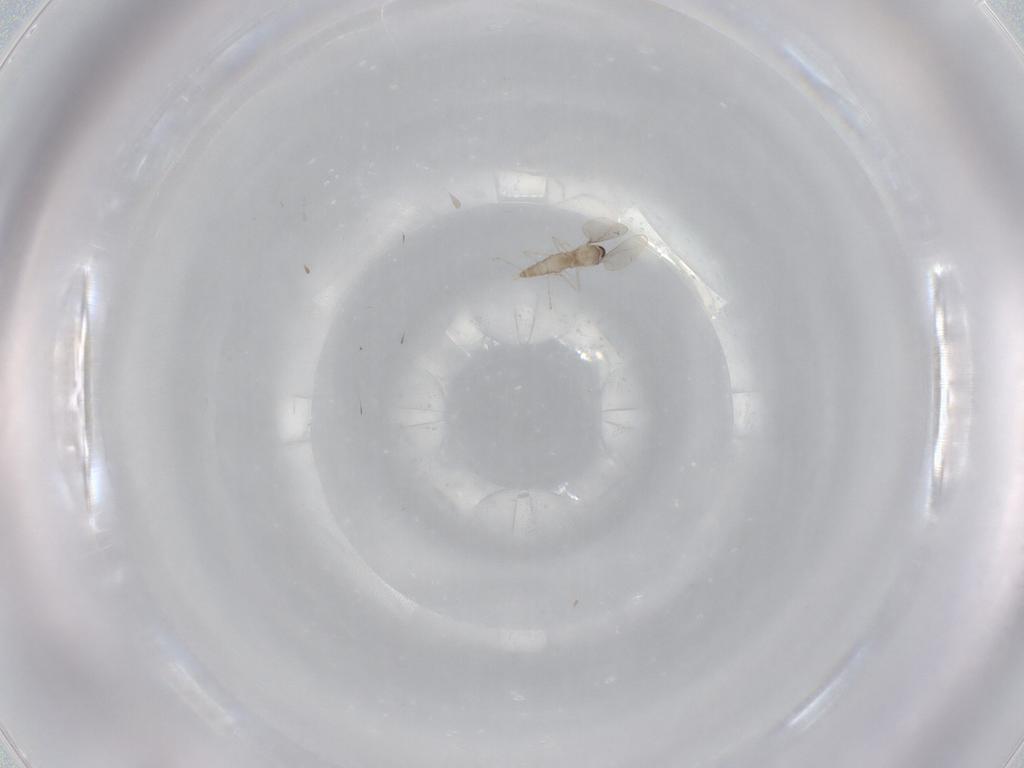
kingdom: Animalia
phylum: Arthropoda
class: Insecta
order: Diptera
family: Cecidomyiidae
